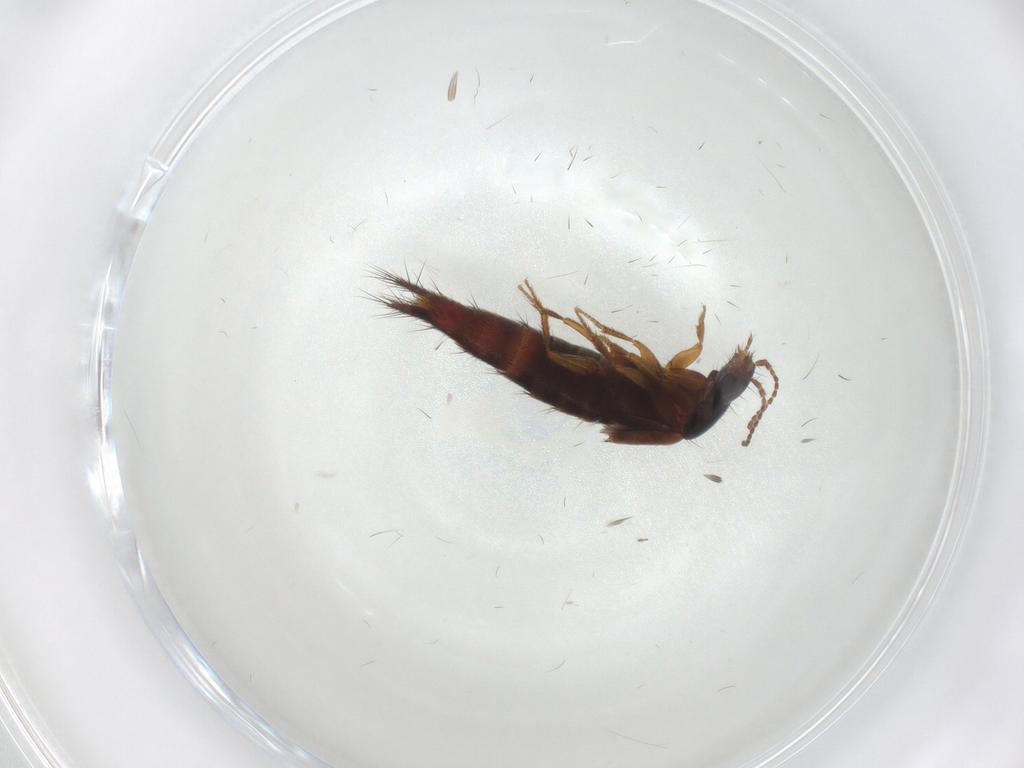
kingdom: Animalia
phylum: Arthropoda
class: Insecta
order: Coleoptera
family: Staphylinidae
